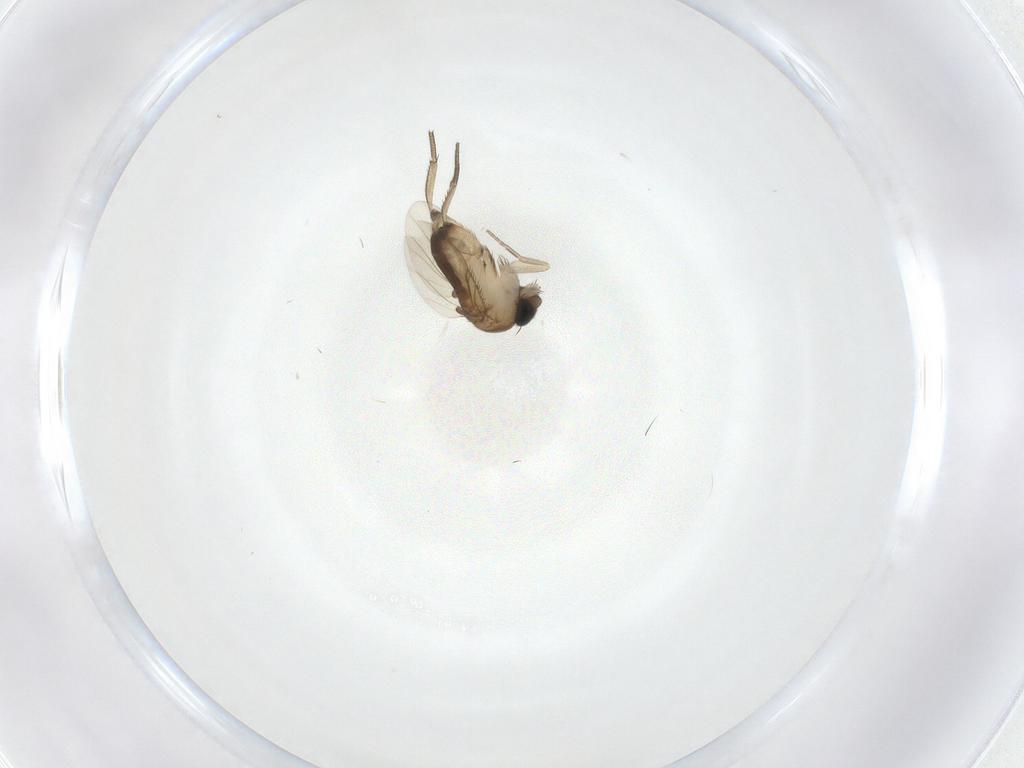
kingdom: Animalia
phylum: Arthropoda
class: Insecta
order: Diptera
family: Phoridae
